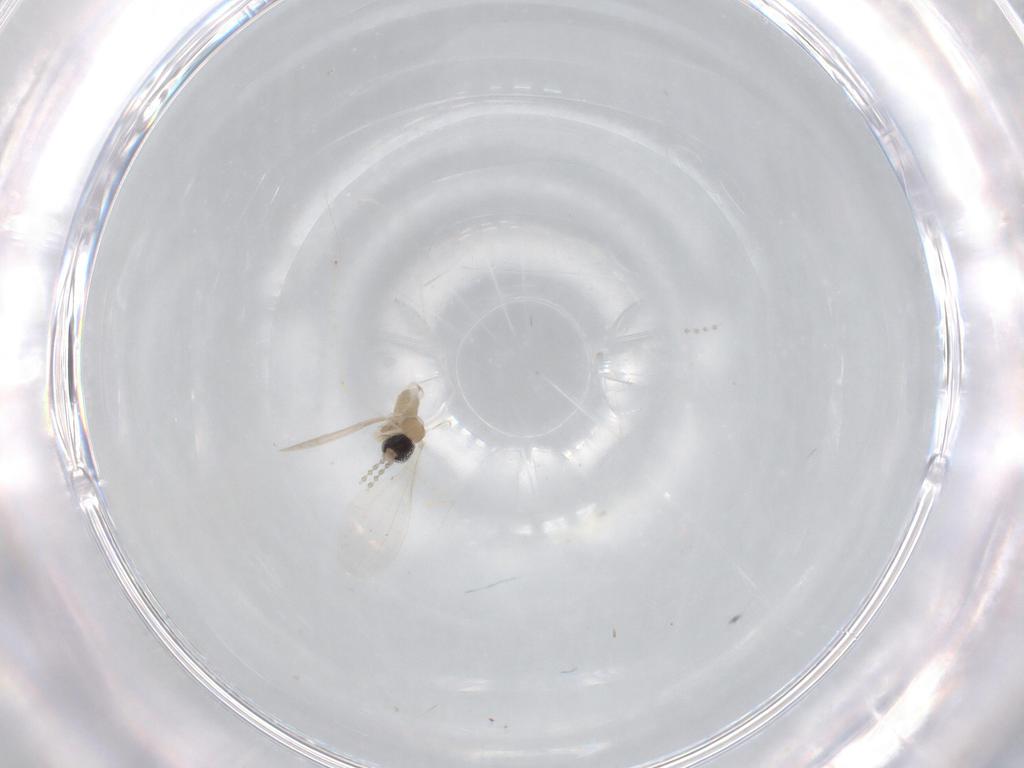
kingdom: Animalia
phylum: Arthropoda
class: Insecta
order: Diptera
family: Cecidomyiidae
